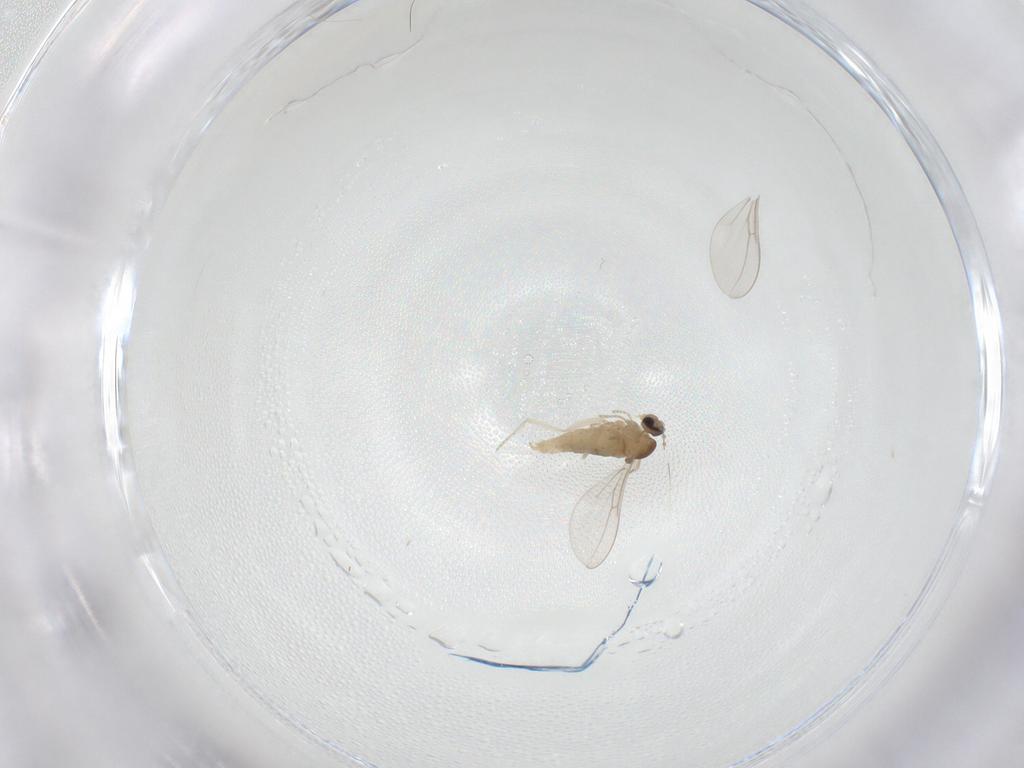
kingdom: Animalia
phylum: Arthropoda
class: Insecta
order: Diptera
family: Cecidomyiidae
